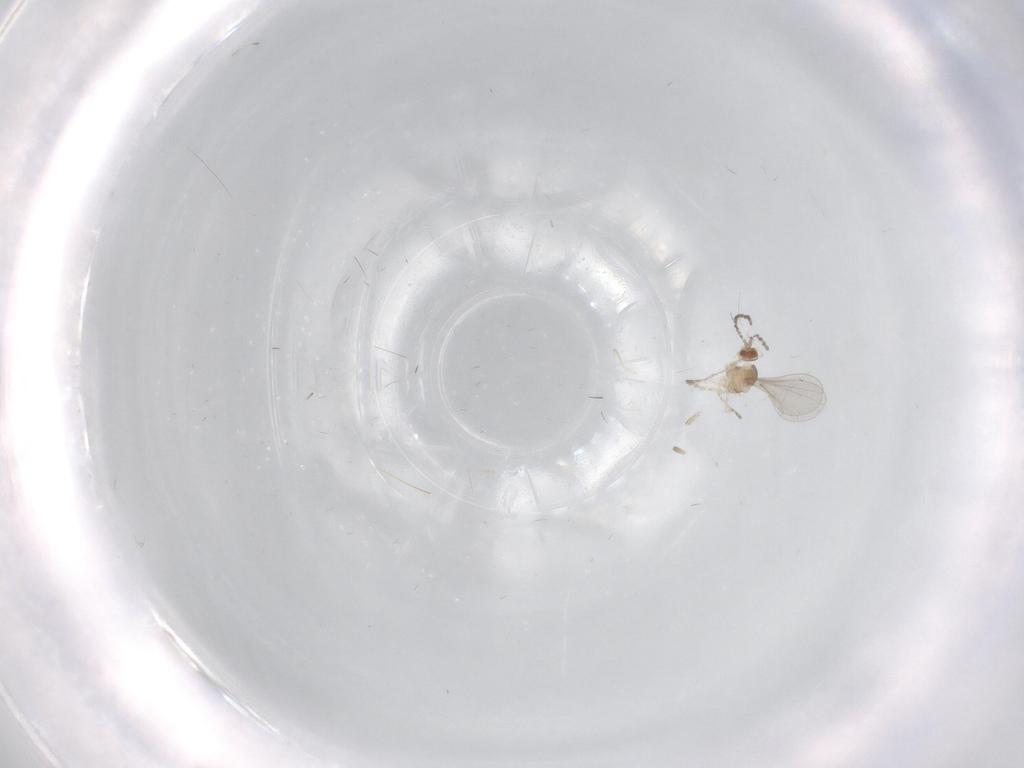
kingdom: Animalia
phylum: Arthropoda
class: Insecta
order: Diptera
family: Cecidomyiidae
